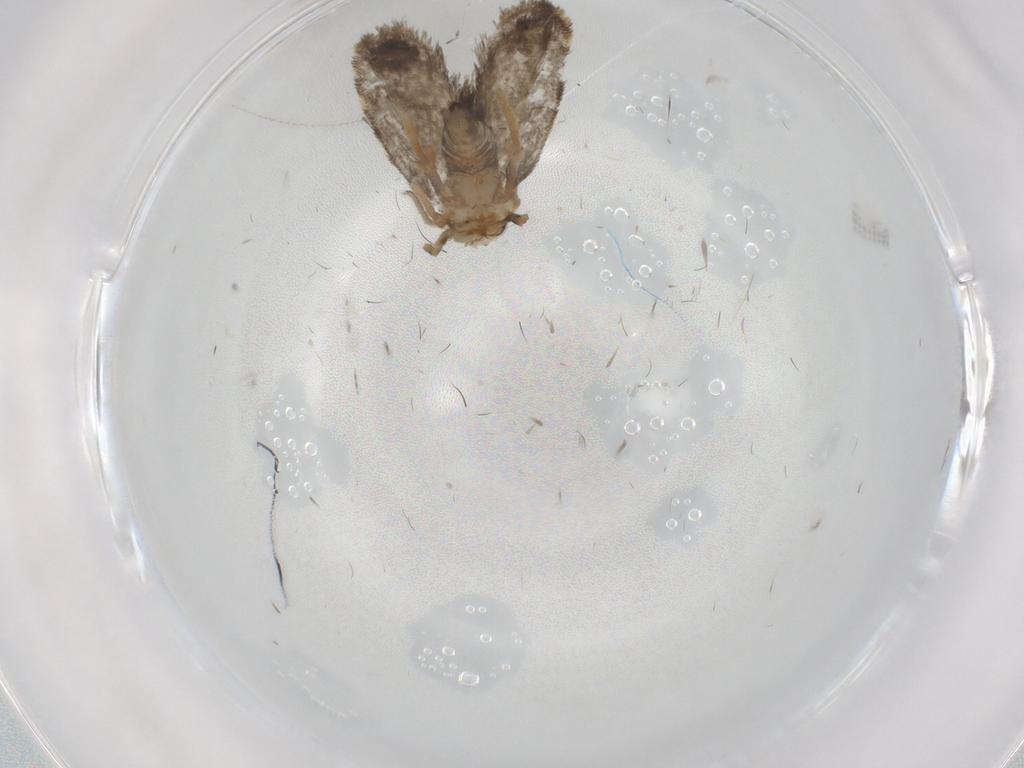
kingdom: Animalia
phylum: Arthropoda
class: Insecta
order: Lepidoptera
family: Psychidae
